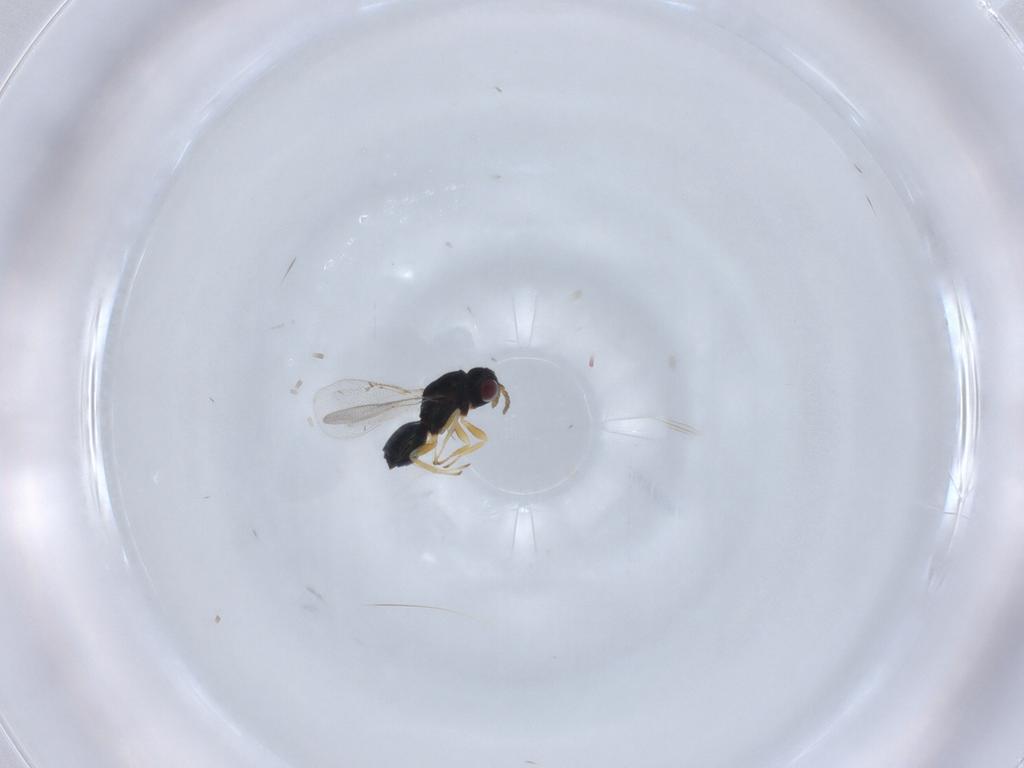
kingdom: Animalia
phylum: Arthropoda
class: Insecta
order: Hymenoptera
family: Eulophidae
